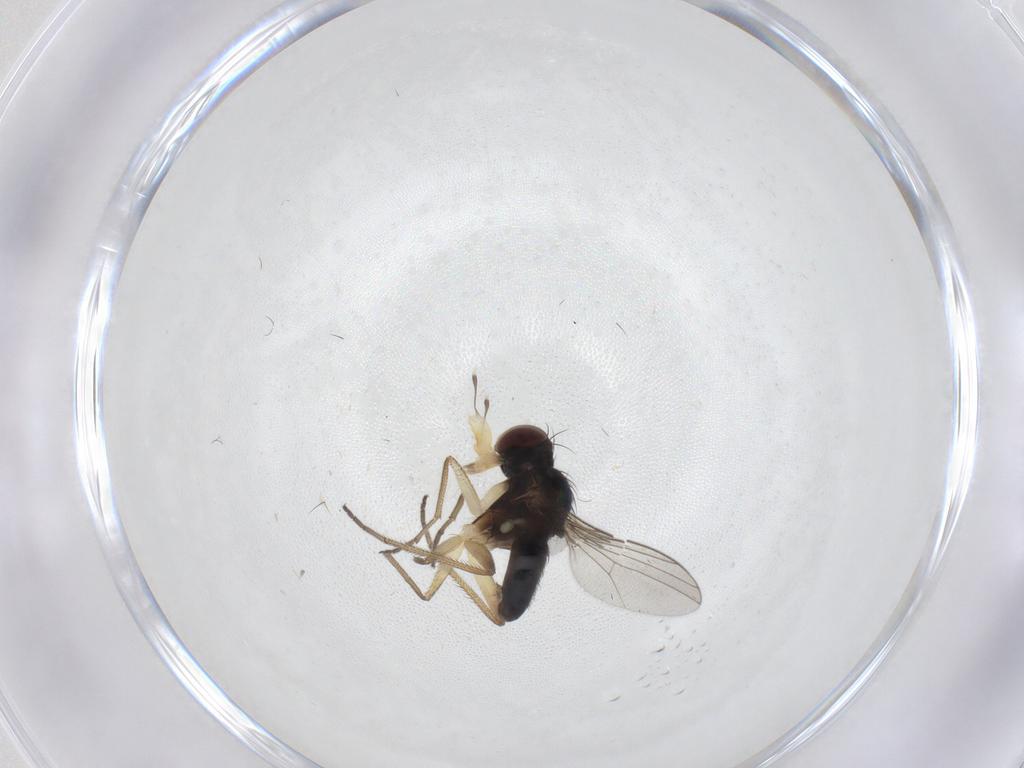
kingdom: Animalia
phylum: Arthropoda
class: Insecta
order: Diptera
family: Dolichopodidae
